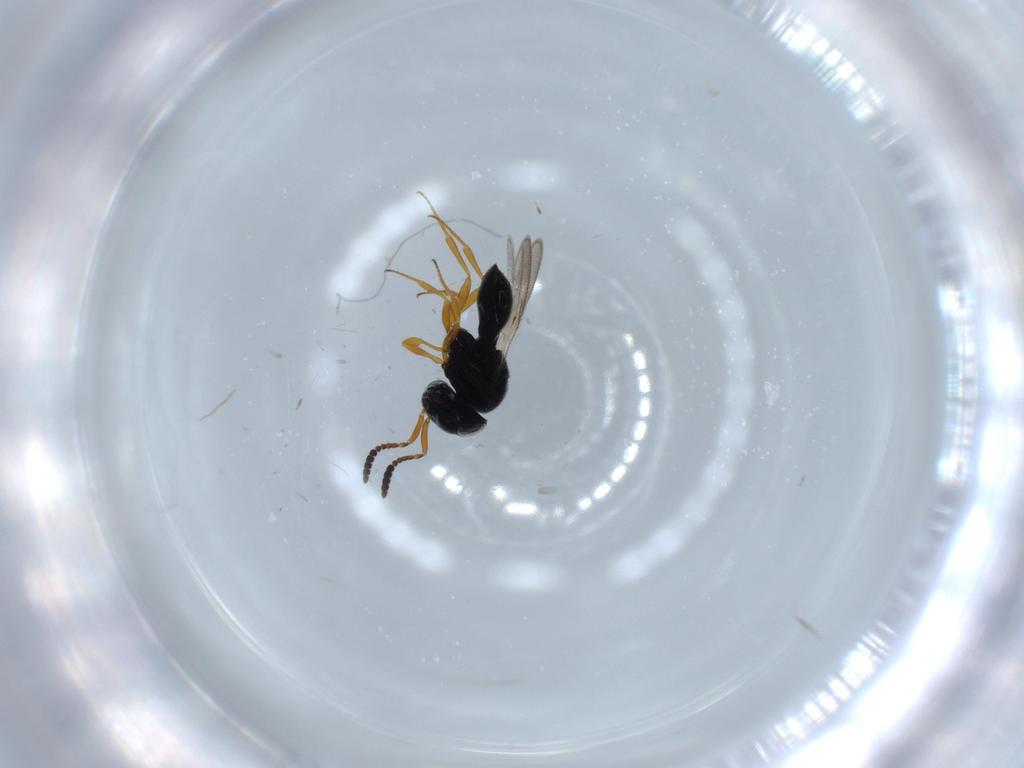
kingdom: Animalia
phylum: Arthropoda
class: Insecta
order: Hymenoptera
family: Scelionidae
